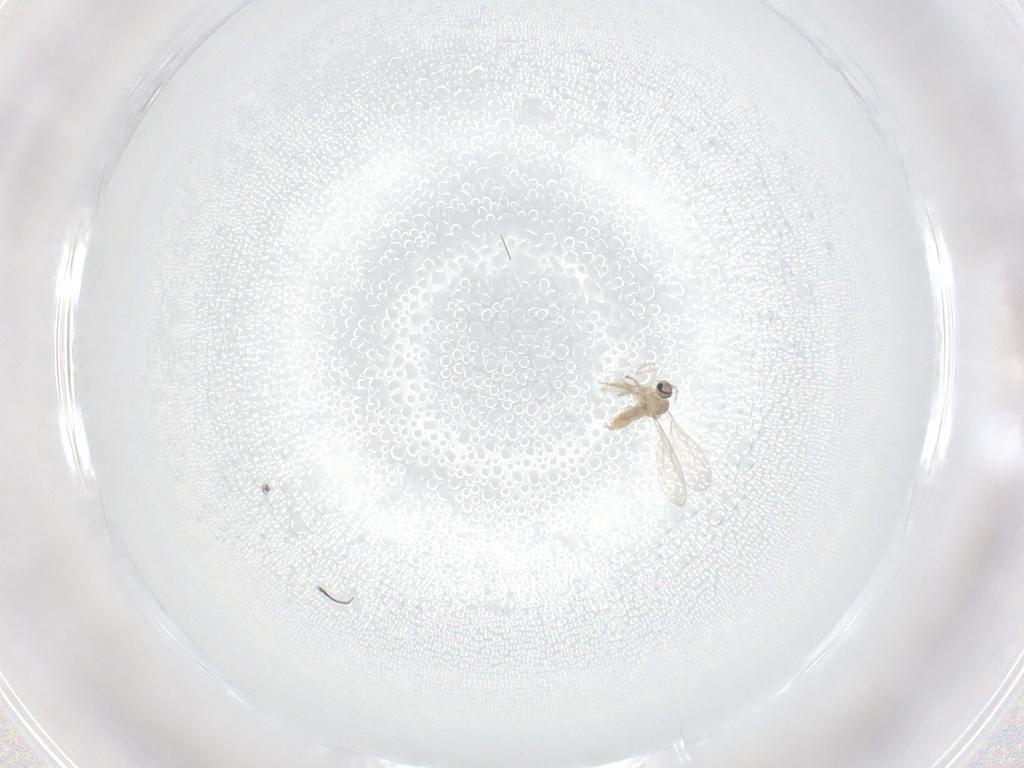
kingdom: Animalia
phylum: Arthropoda
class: Insecta
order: Diptera
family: Cecidomyiidae
